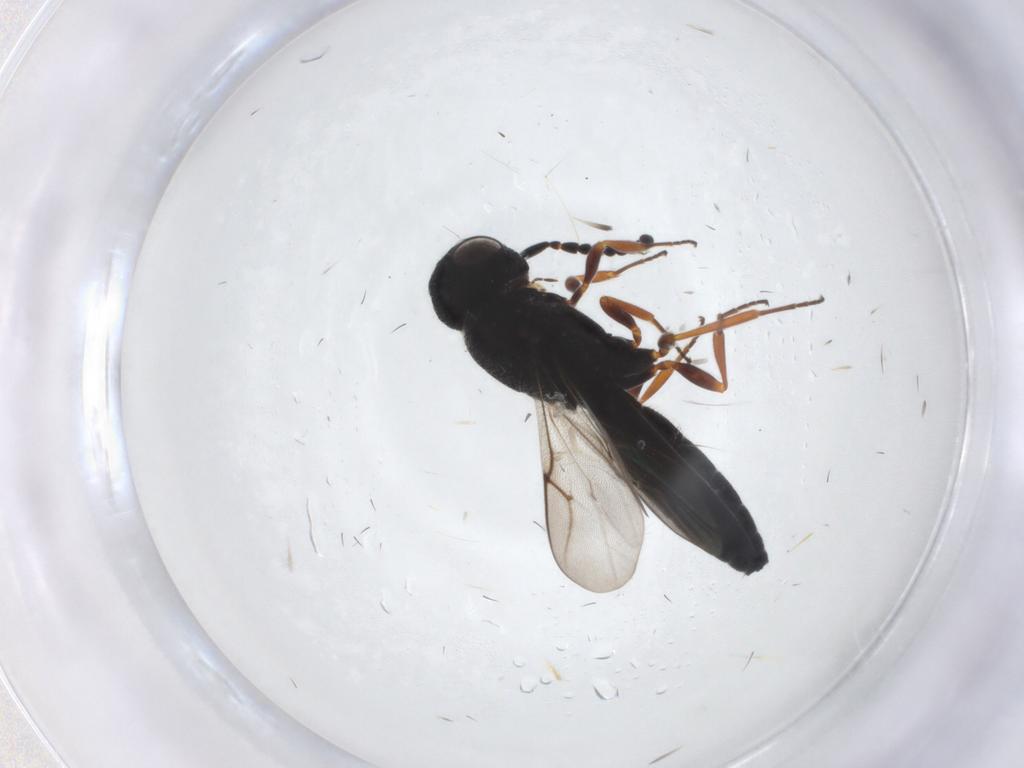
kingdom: Animalia
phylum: Arthropoda
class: Insecta
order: Hymenoptera
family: Scelionidae
